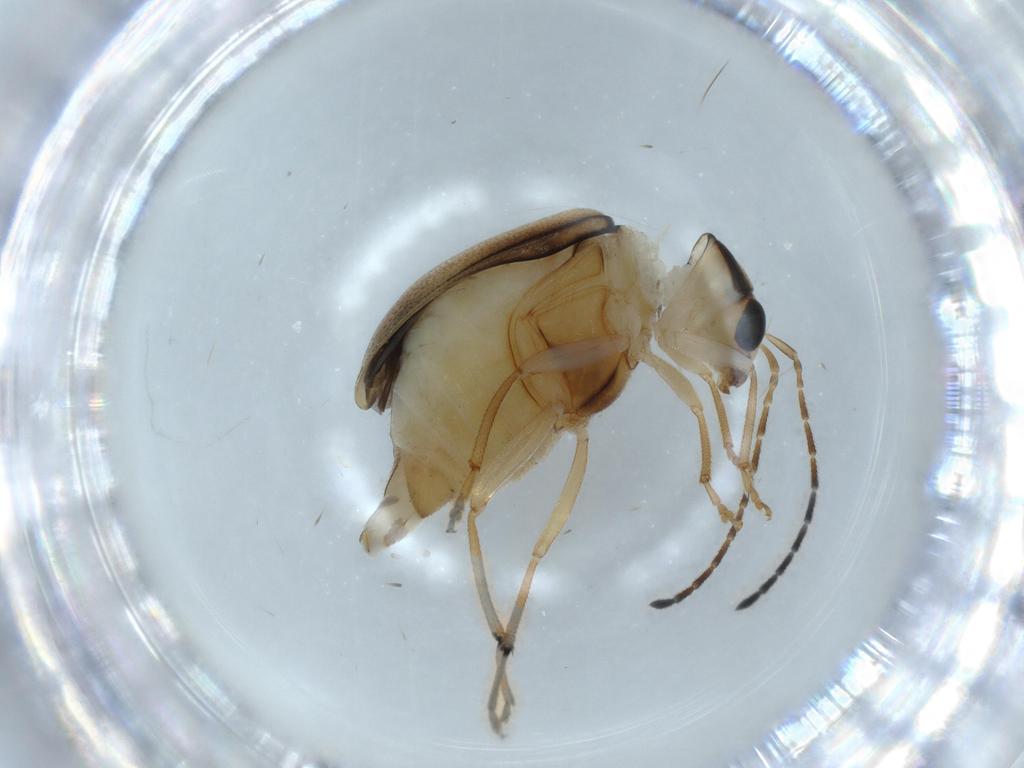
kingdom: Animalia
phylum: Arthropoda
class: Insecta
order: Coleoptera
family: Chrysomelidae
